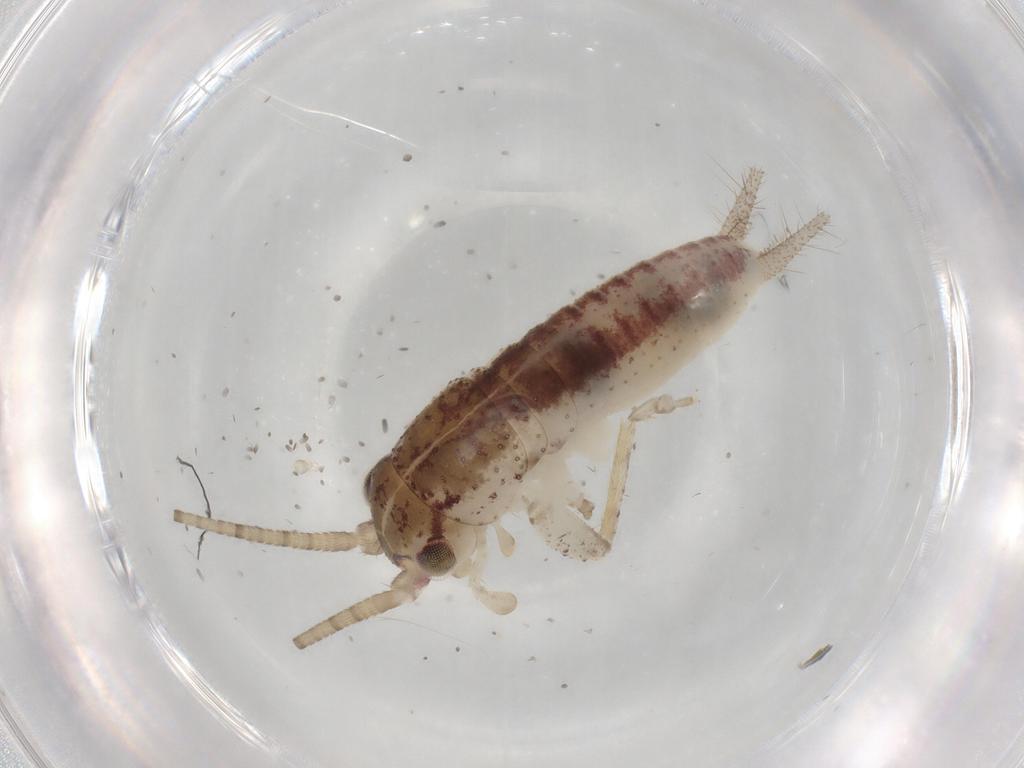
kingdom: Animalia
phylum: Arthropoda
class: Insecta
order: Orthoptera
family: Gryllidae
